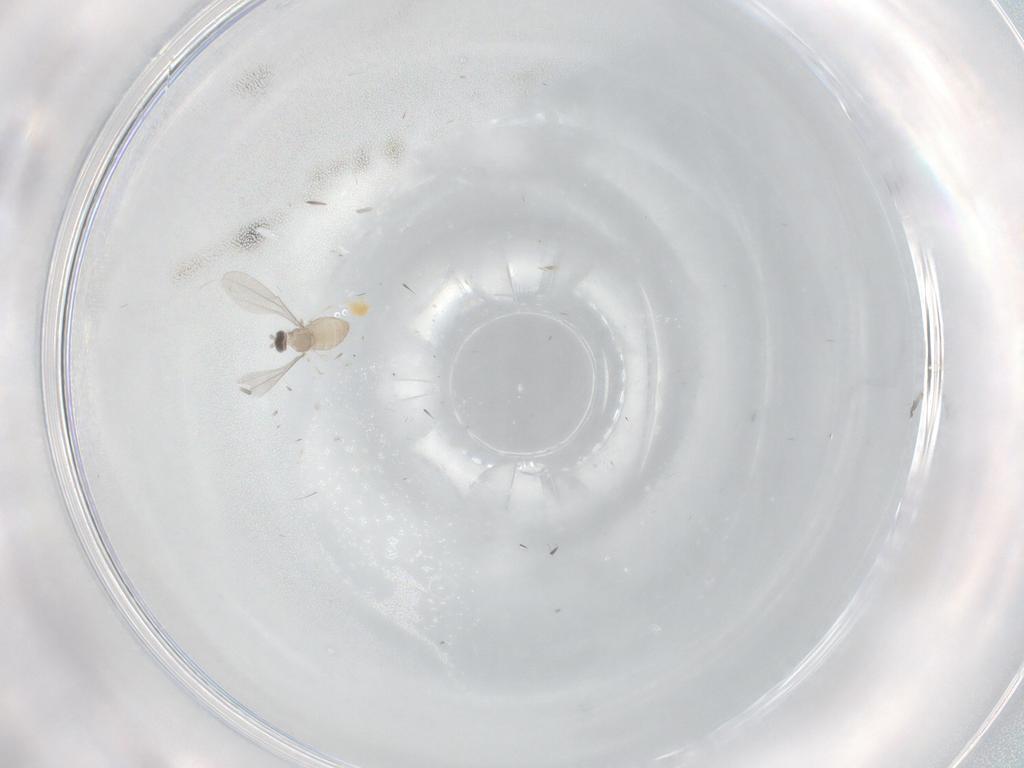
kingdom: Animalia
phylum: Arthropoda
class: Insecta
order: Diptera
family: Cecidomyiidae
